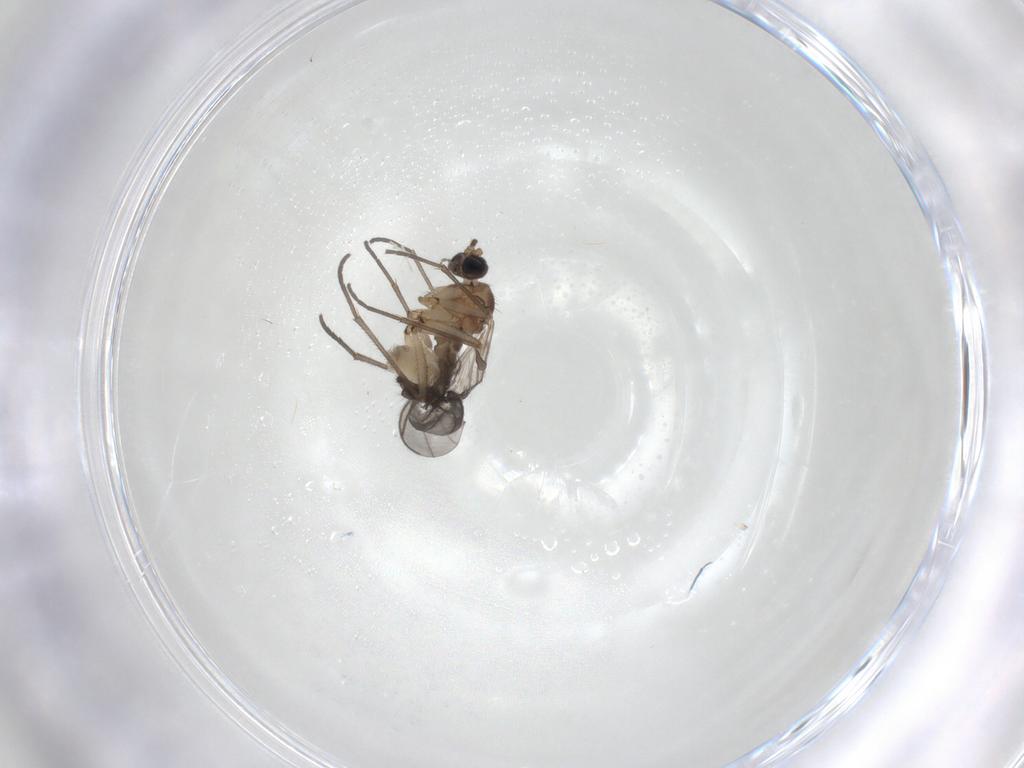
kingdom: Animalia
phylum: Arthropoda
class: Arachnida
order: Trombidiformes
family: Anystidae
